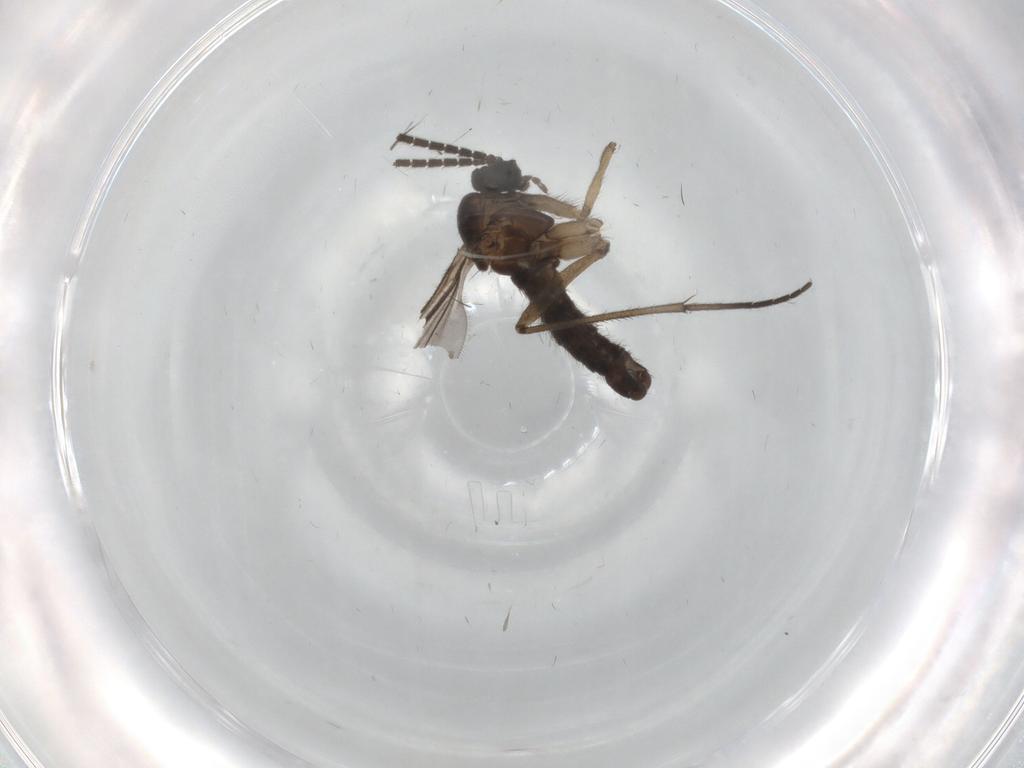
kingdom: Animalia
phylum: Arthropoda
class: Insecta
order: Diptera
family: Sciaridae
